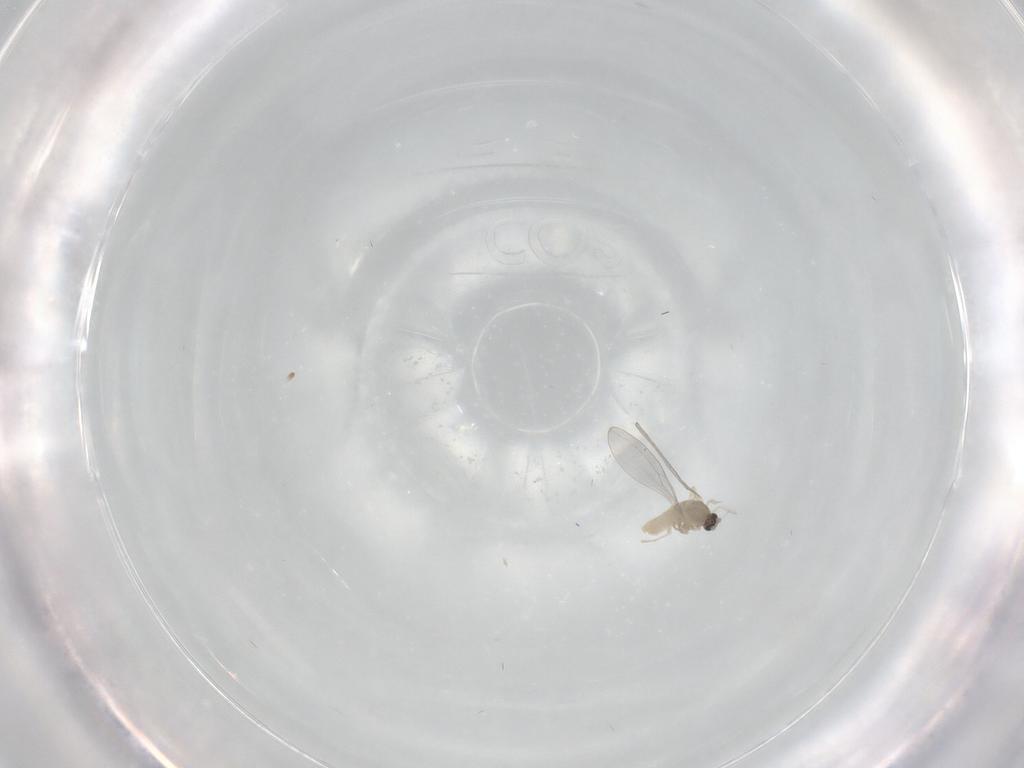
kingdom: Animalia
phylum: Arthropoda
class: Insecta
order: Diptera
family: Cecidomyiidae
